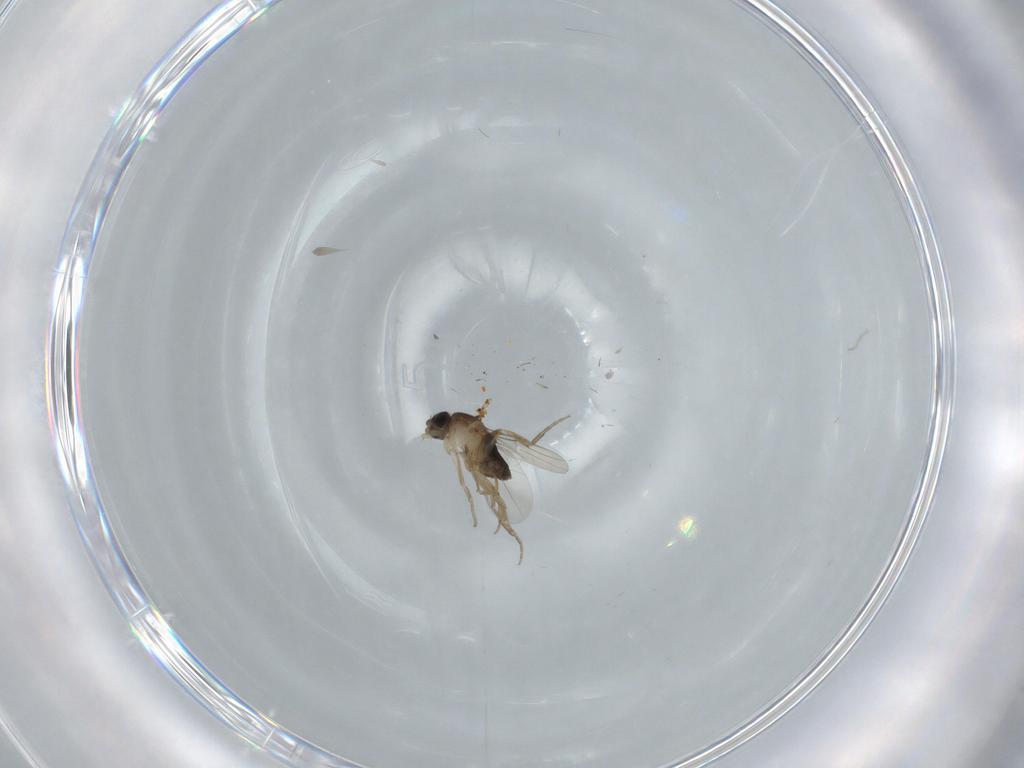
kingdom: Animalia
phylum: Arthropoda
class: Insecta
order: Diptera
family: Phoridae
